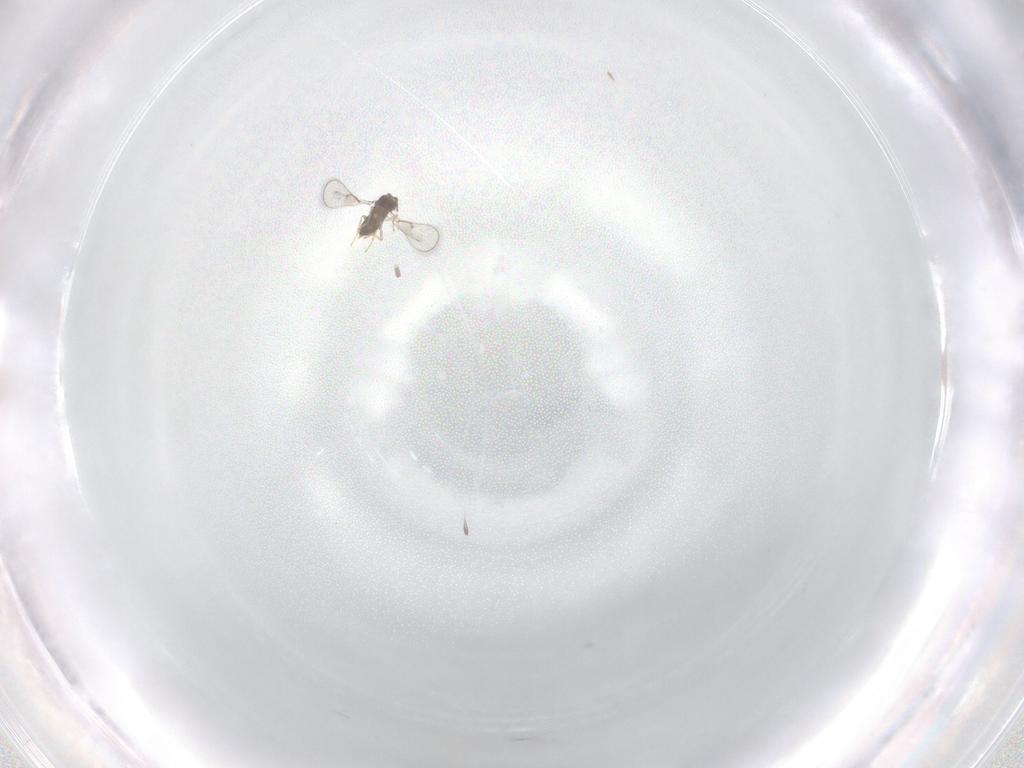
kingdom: Animalia
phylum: Arthropoda
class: Insecta
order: Hymenoptera
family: Trichogrammatidae
